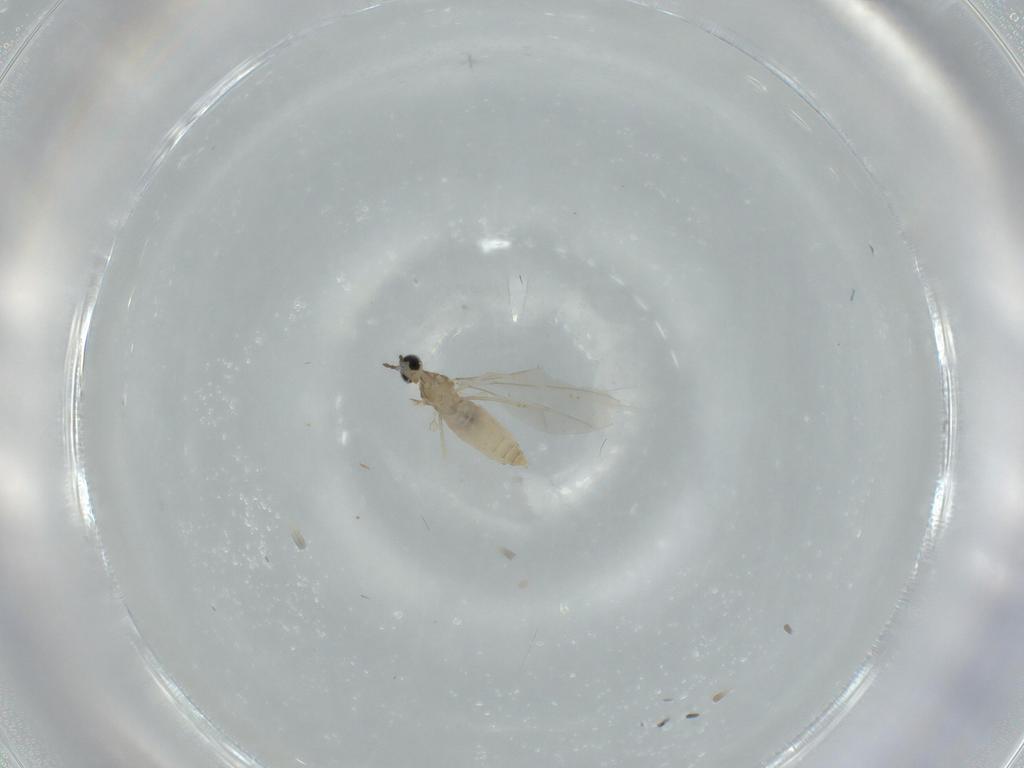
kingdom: Animalia
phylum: Arthropoda
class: Insecta
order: Diptera
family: Cecidomyiidae
